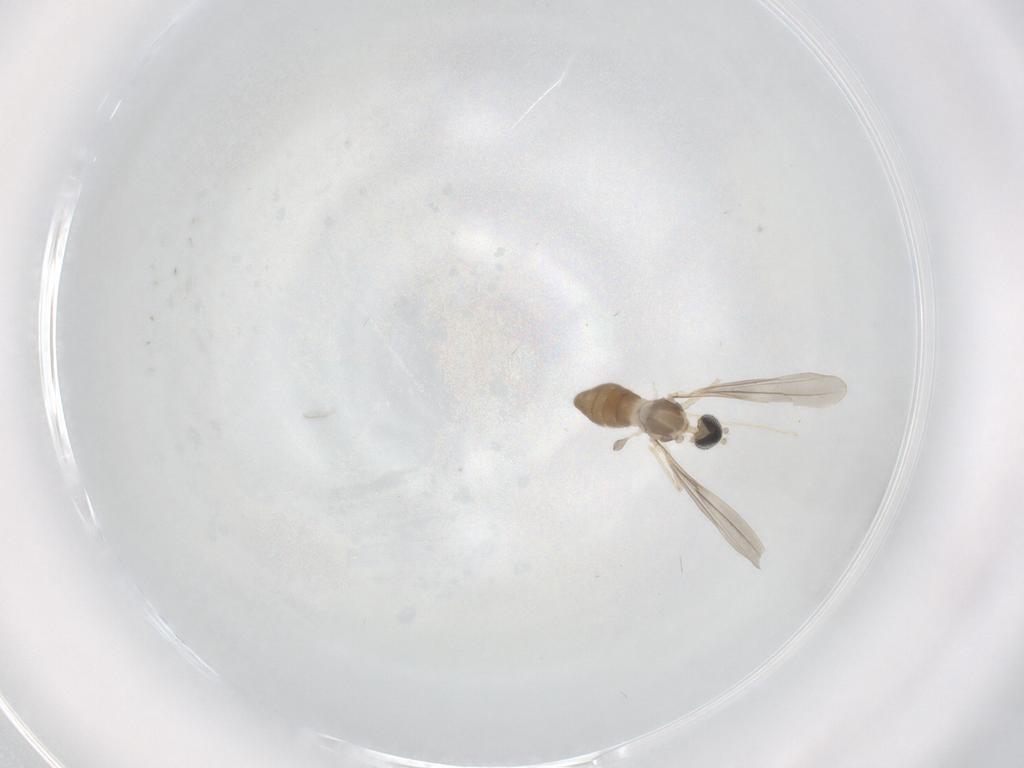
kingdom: Animalia
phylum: Arthropoda
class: Insecta
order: Diptera
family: Cecidomyiidae
